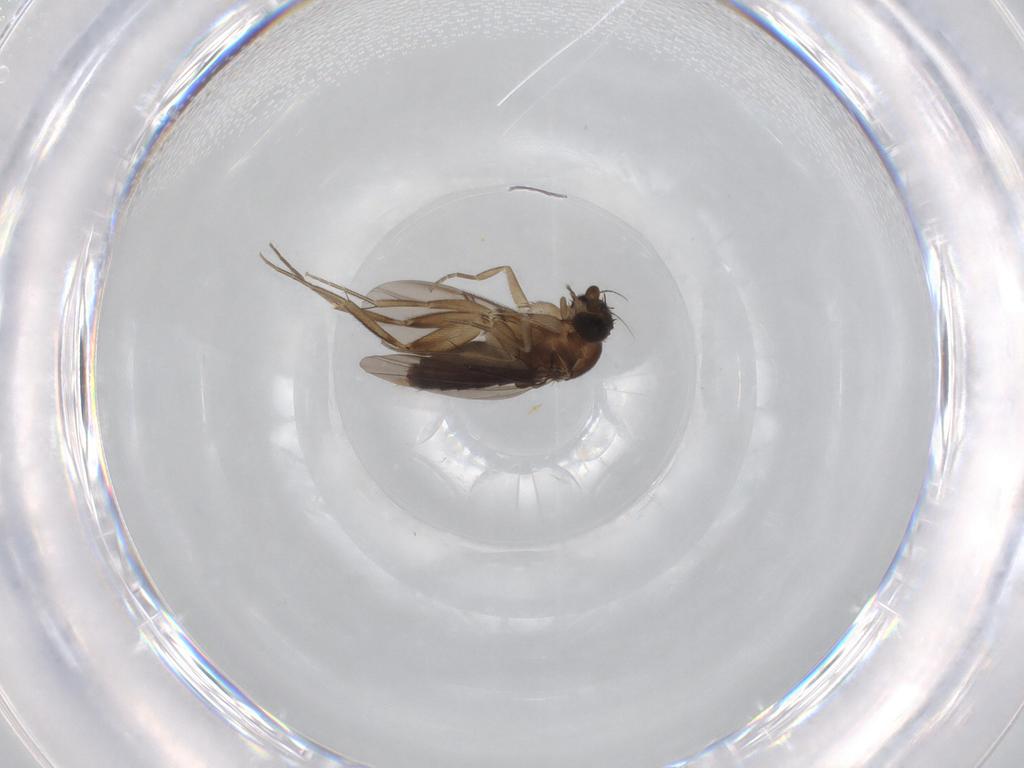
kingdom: Animalia
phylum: Arthropoda
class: Insecta
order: Diptera
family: Phoridae
